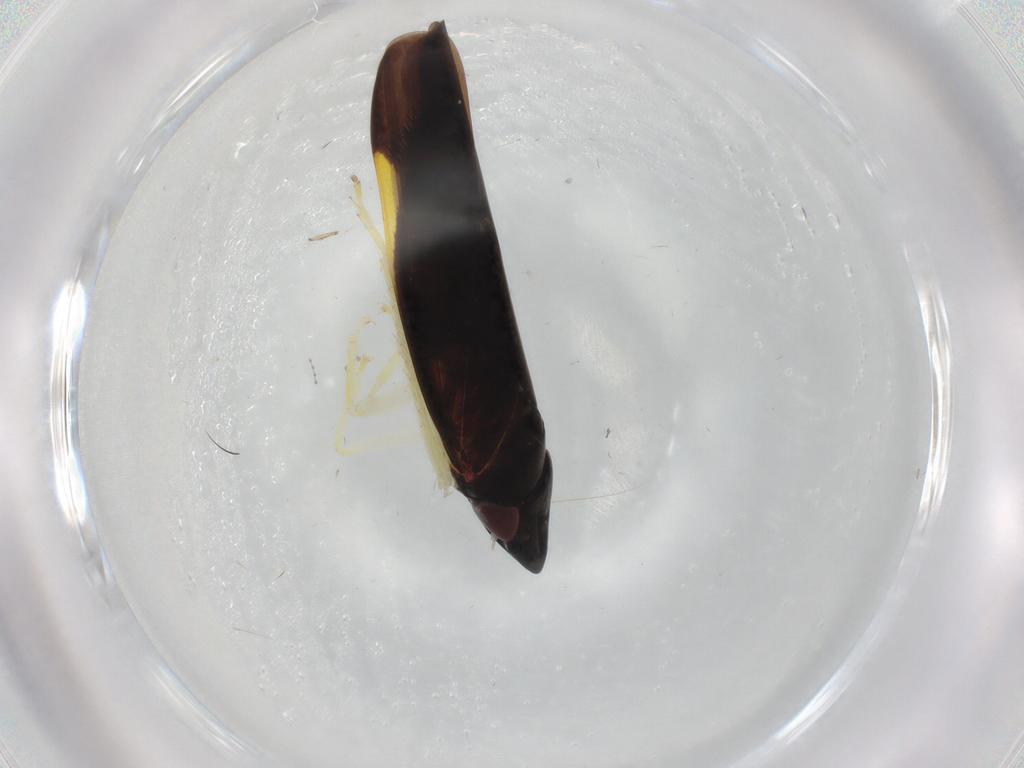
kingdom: Animalia
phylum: Arthropoda
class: Insecta
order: Hemiptera
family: Cicadellidae
